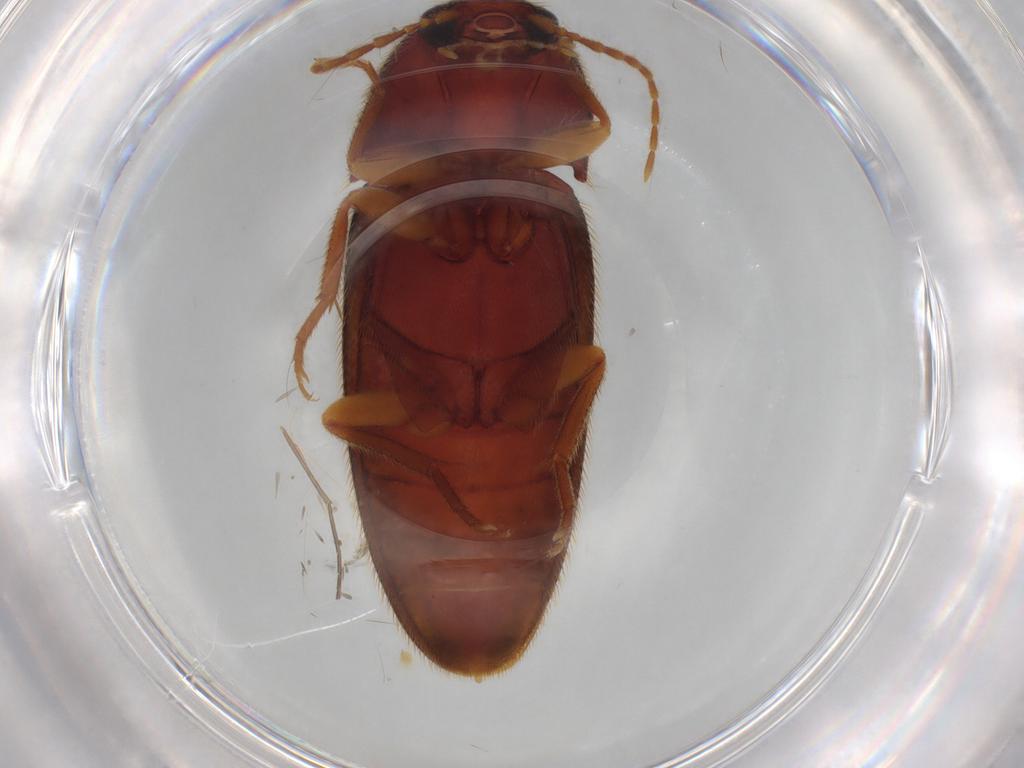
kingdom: Animalia
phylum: Arthropoda
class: Insecta
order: Coleoptera
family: Elateridae
